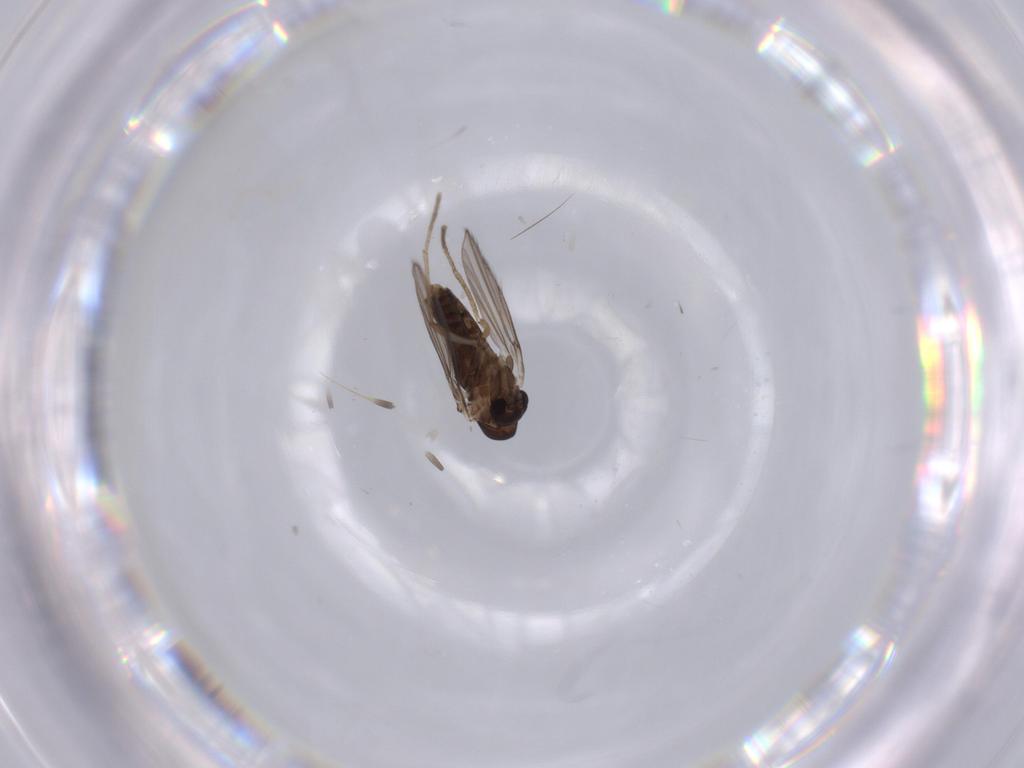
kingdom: Animalia
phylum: Arthropoda
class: Insecta
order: Diptera
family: Psychodidae
